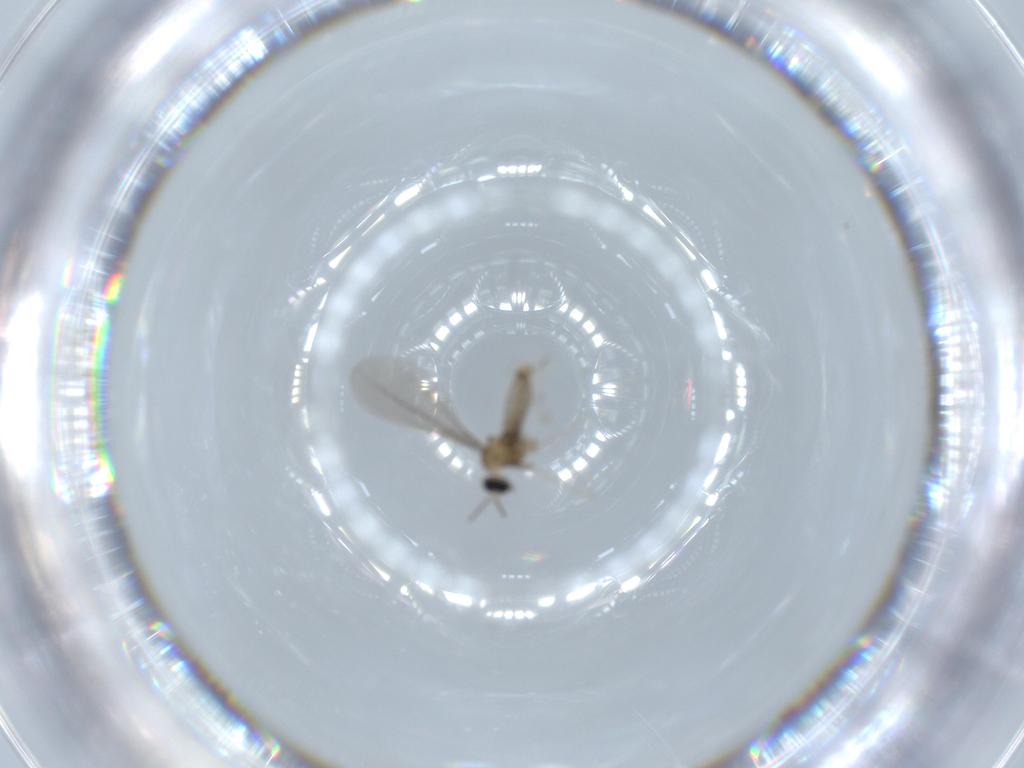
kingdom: Animalia
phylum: Arthropoda
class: Insecta
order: Diptera
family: Cecidomyiidae
